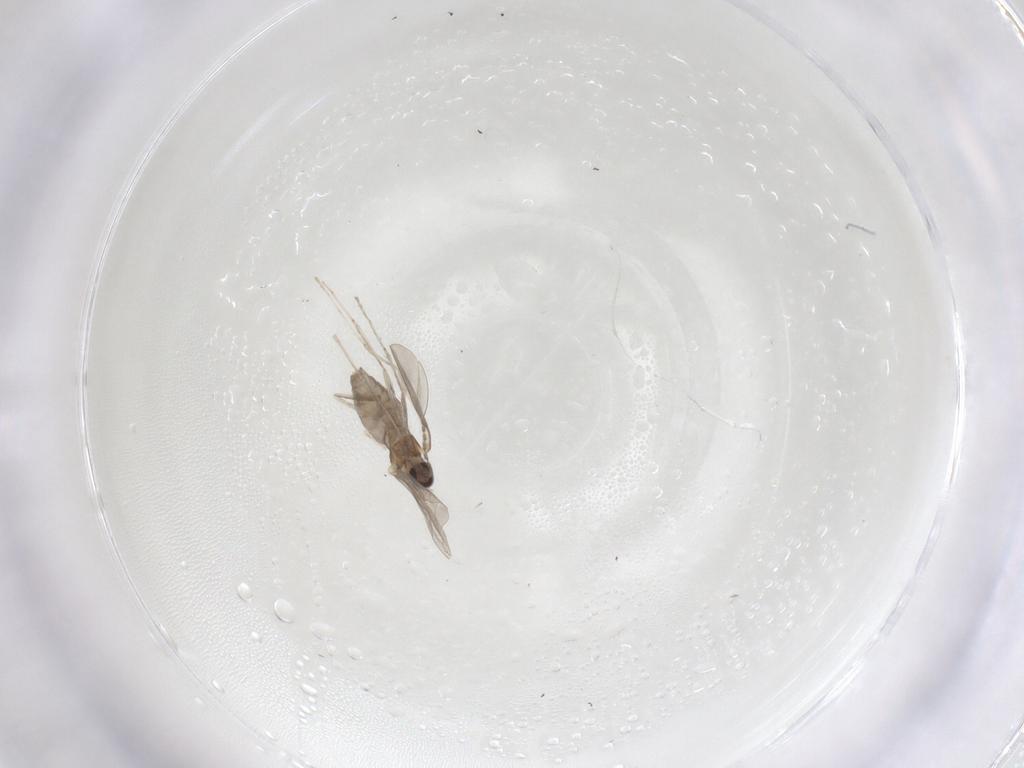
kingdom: Animalia
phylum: Arthropoda
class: Insecta
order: Diptera
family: Cecidomyiidae
